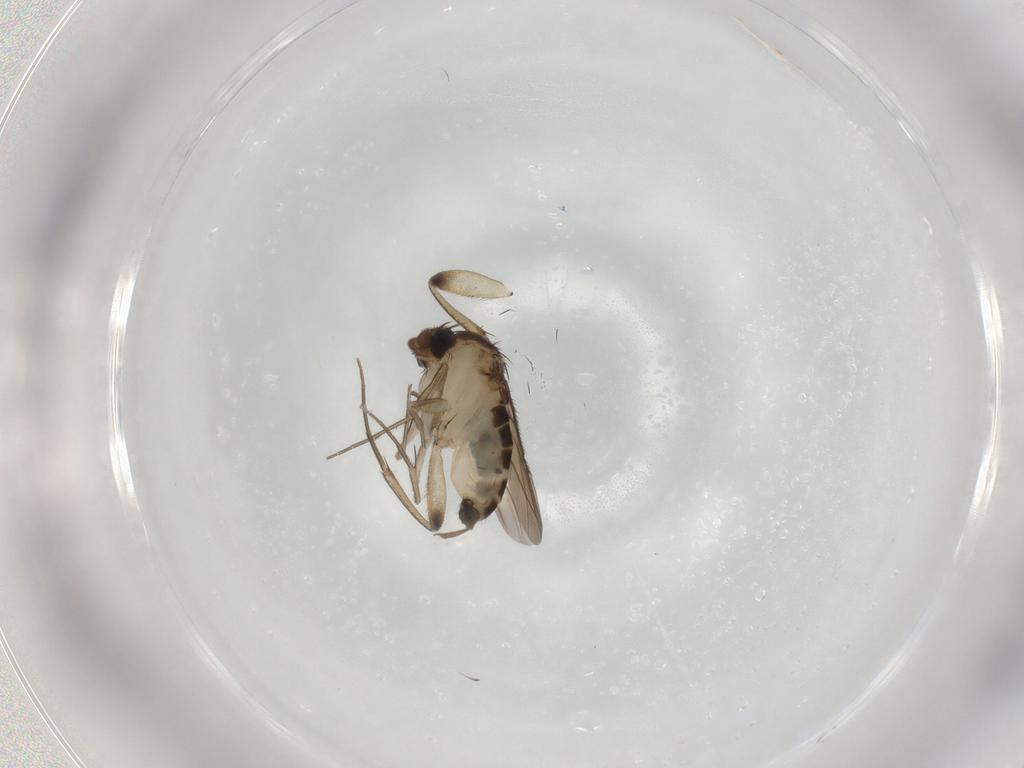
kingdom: Animalia
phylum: Arthropoda
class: Insecta
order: Diptera
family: Phoridae
